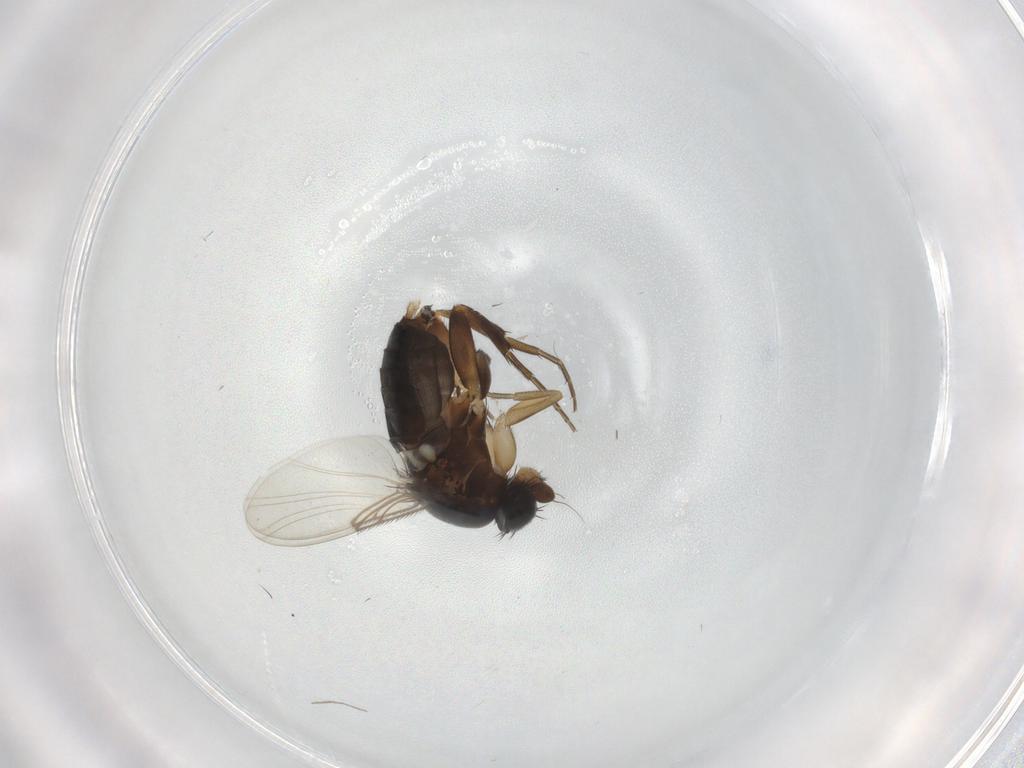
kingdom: Animalia
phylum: Arthropoda
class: Insecta
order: Diptera
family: Phoridae
